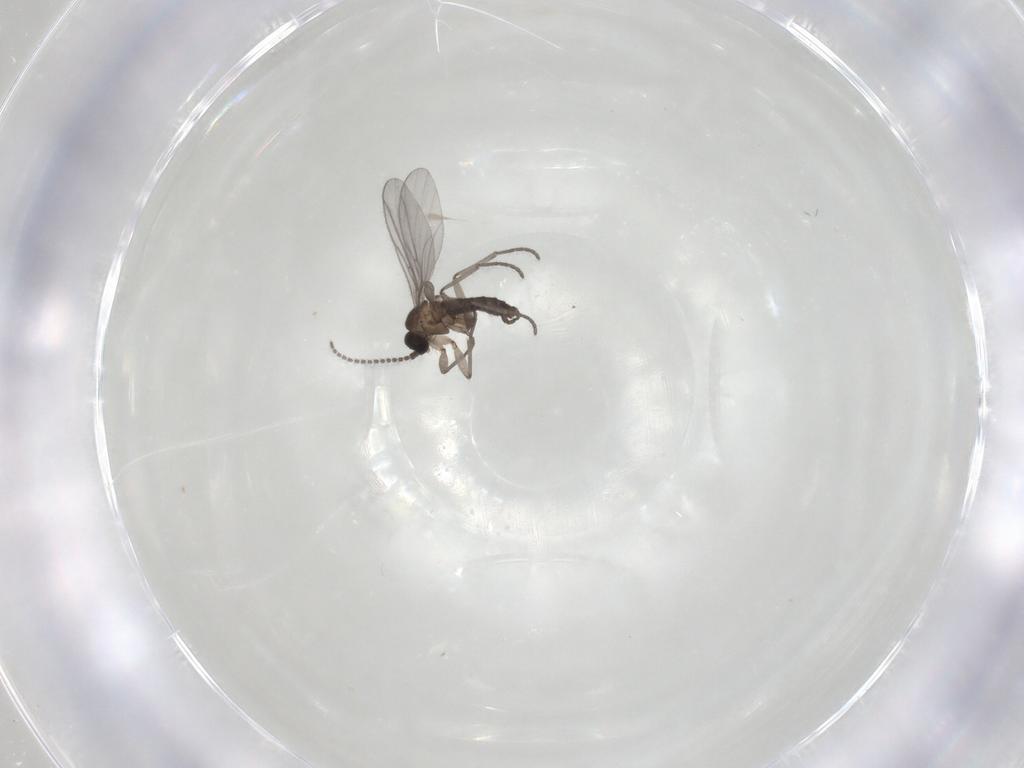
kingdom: Animalia
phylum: Arthropoda
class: Insecta
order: Diptera
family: Sciaridae
